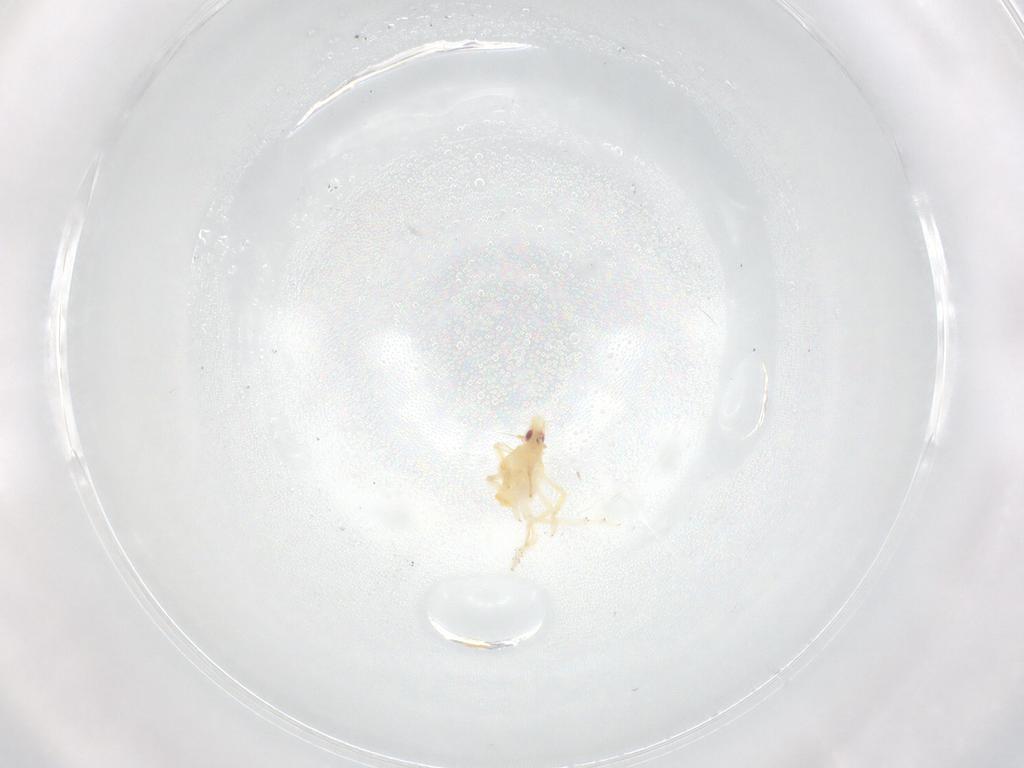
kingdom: Animalia
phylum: Arthropoda
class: Insecta
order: Hemiptera
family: Tropiduchidae
